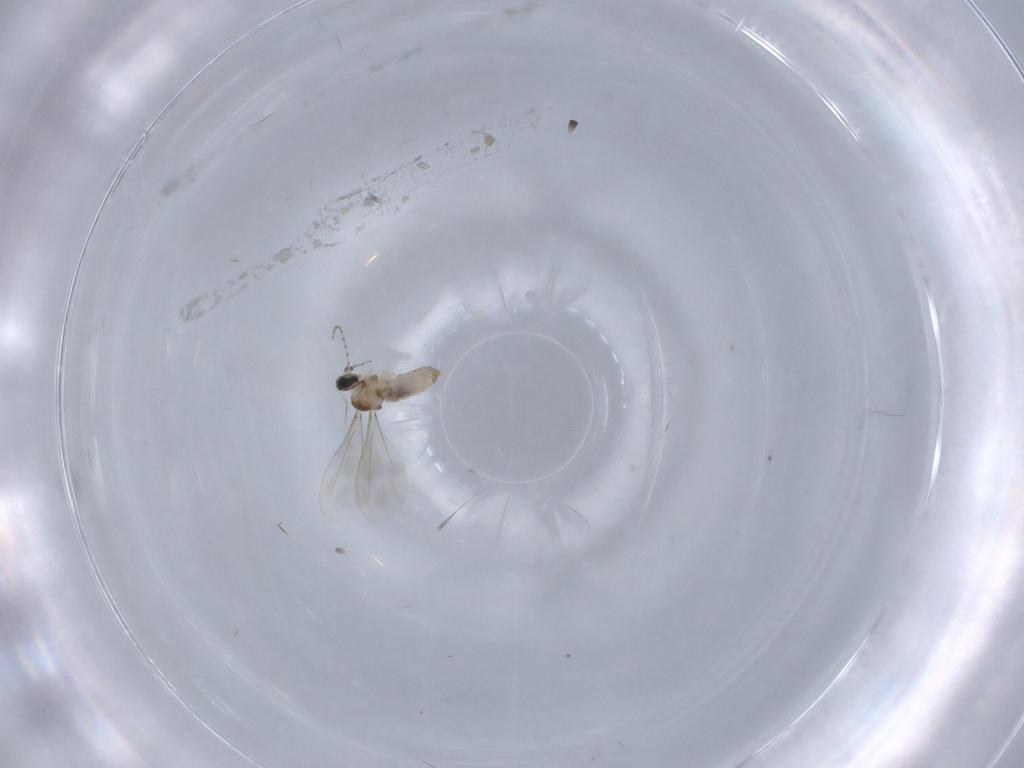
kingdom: Animalia
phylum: Arthropoda
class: Insecta
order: Diptera
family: Cecidomyiidae
